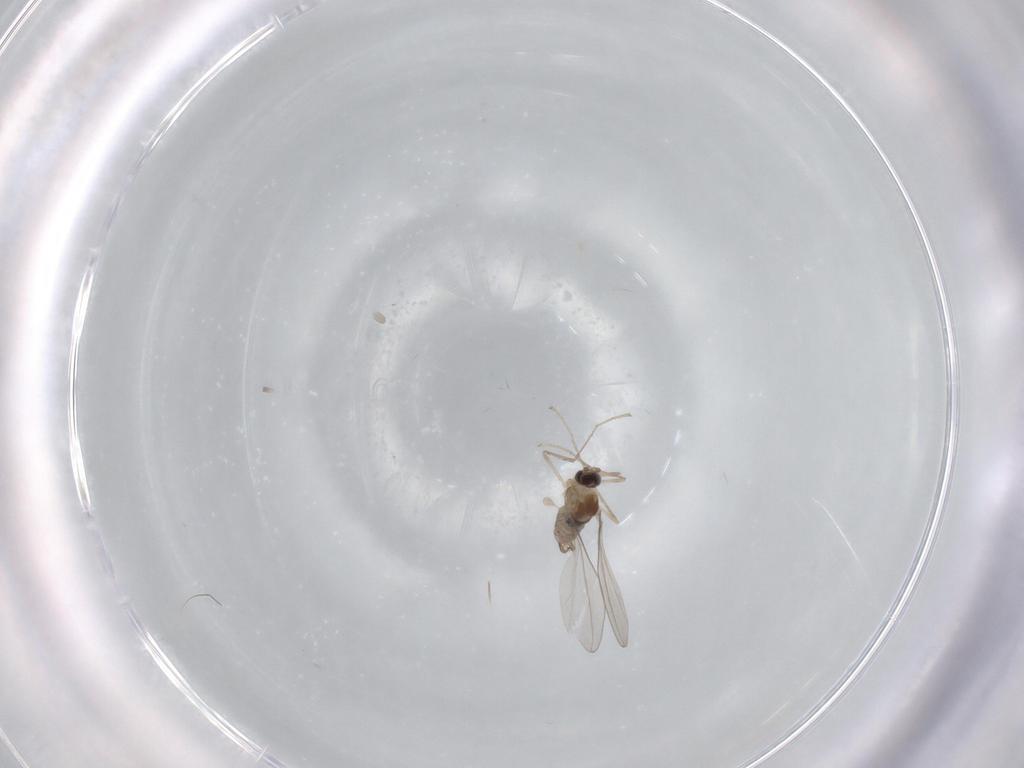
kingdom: Animalia
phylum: Arthropoda
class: Insecta
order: Diptera
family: Cecidomyiidae
